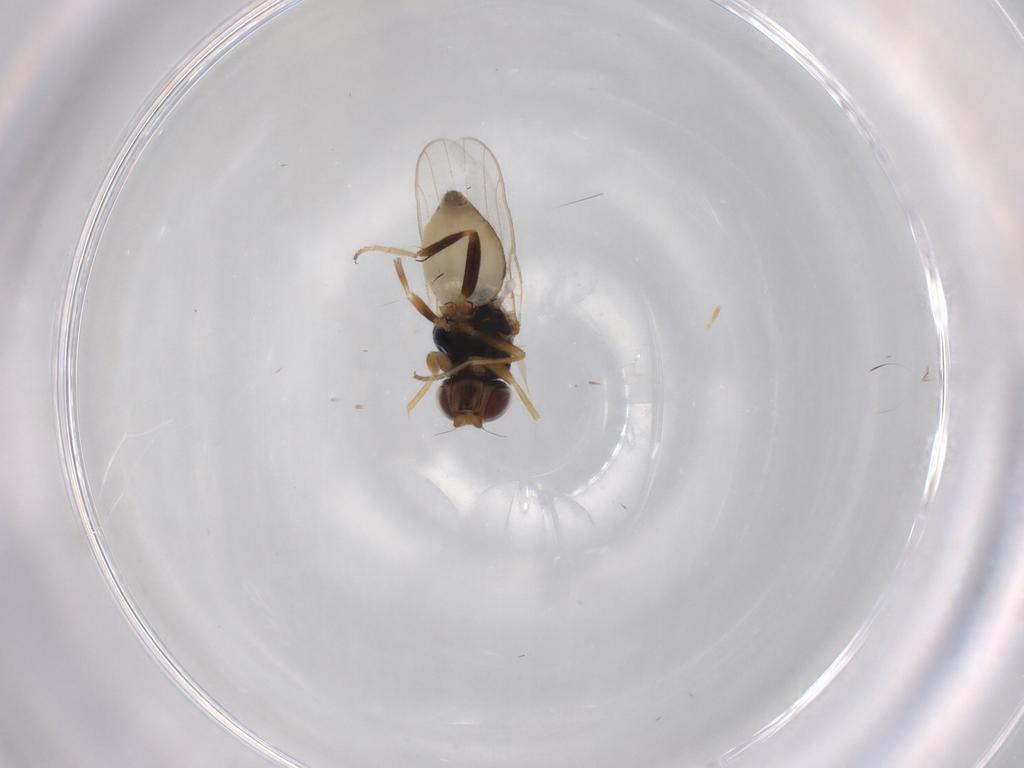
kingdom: Animalia
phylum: Arthropoda
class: Insecta
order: Diptera
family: Chloropidae
